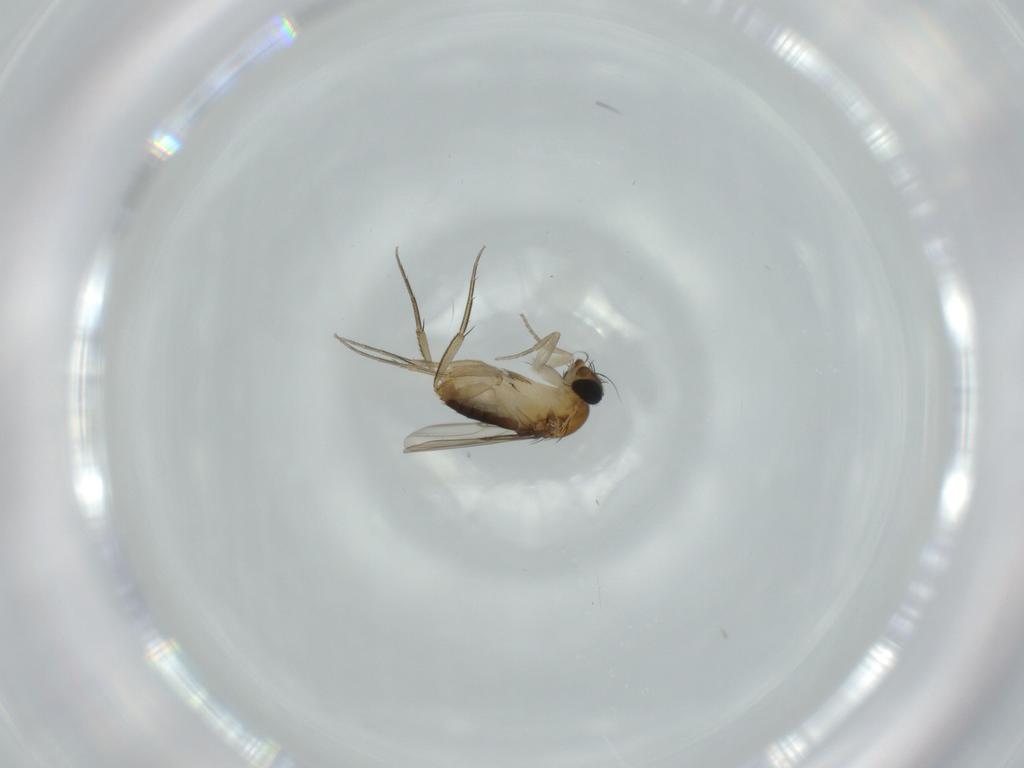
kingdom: Animalia
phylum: Arthropoda
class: Insecta
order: Diptera
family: Phoridae
